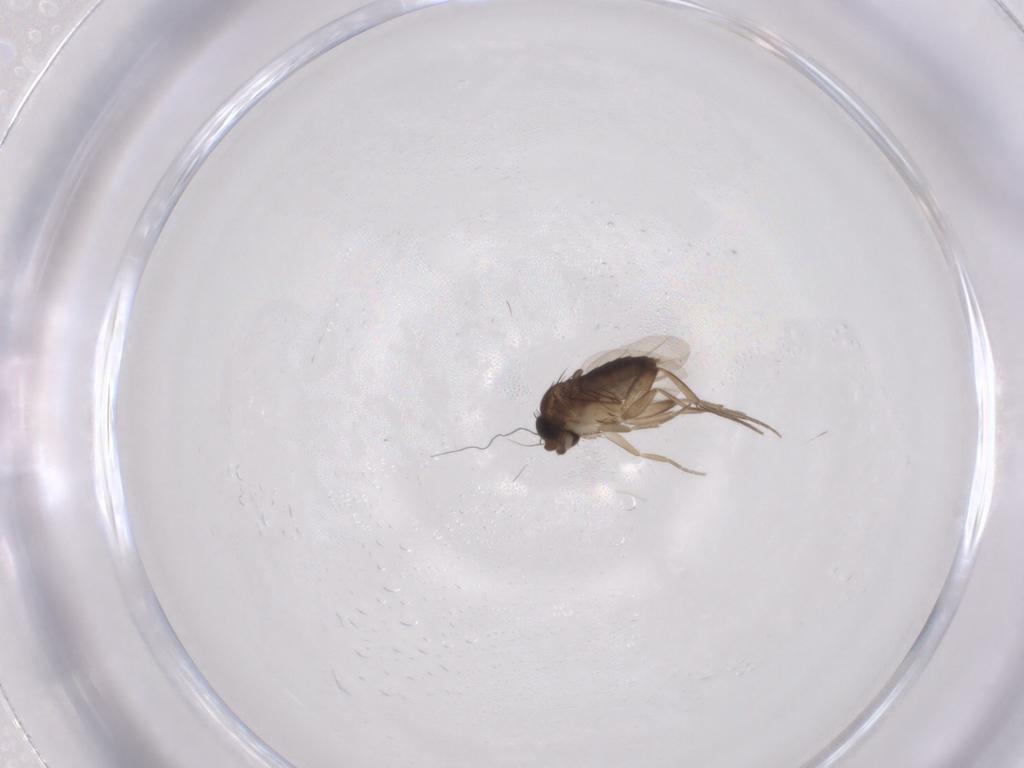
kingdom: Animalia
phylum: Arthropoda
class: Insecta
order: Diptera
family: Phoridae
